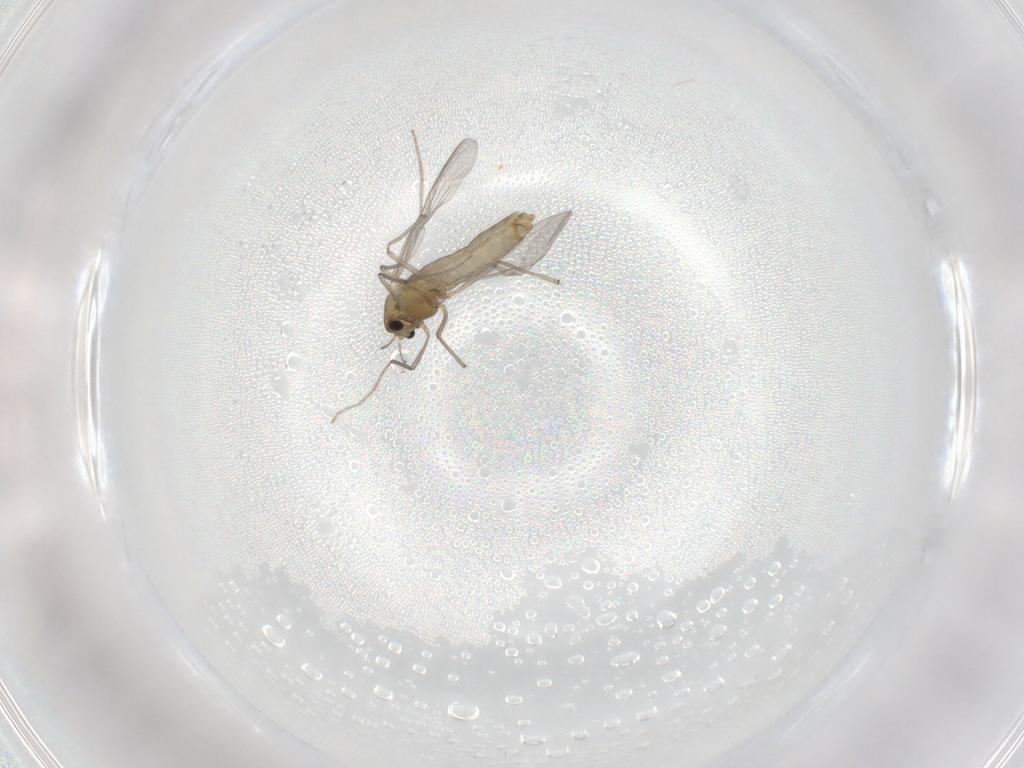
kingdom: Animalia
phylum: Arthropoda
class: Insecta
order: Diptera
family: Chironomidae
